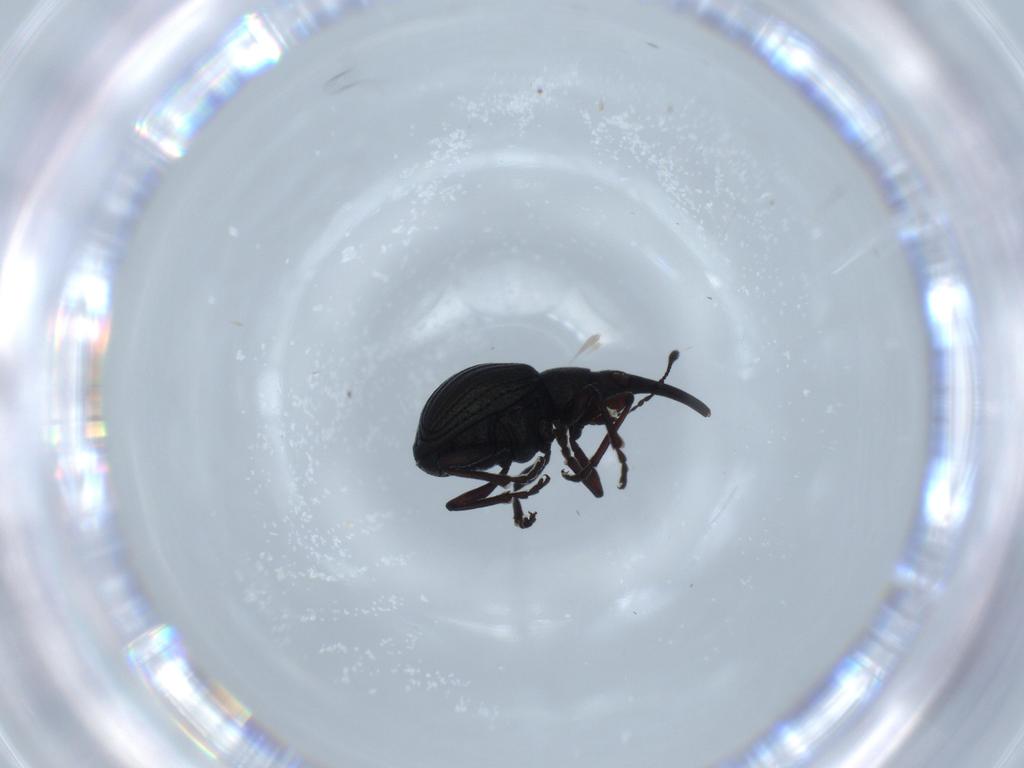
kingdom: Animalia
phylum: Arthropoda
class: Insecta
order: Coleoptera
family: Brentidae
